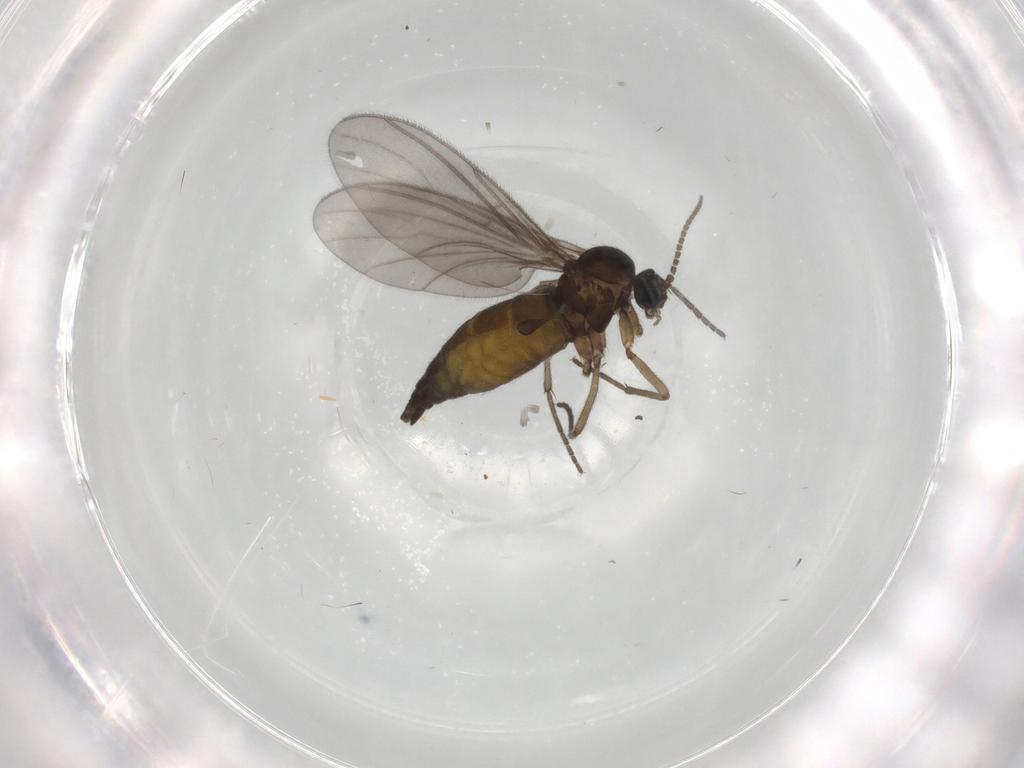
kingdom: Animalia
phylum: Arthropoda
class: Insecta
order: Diptera
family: Sciaridae
